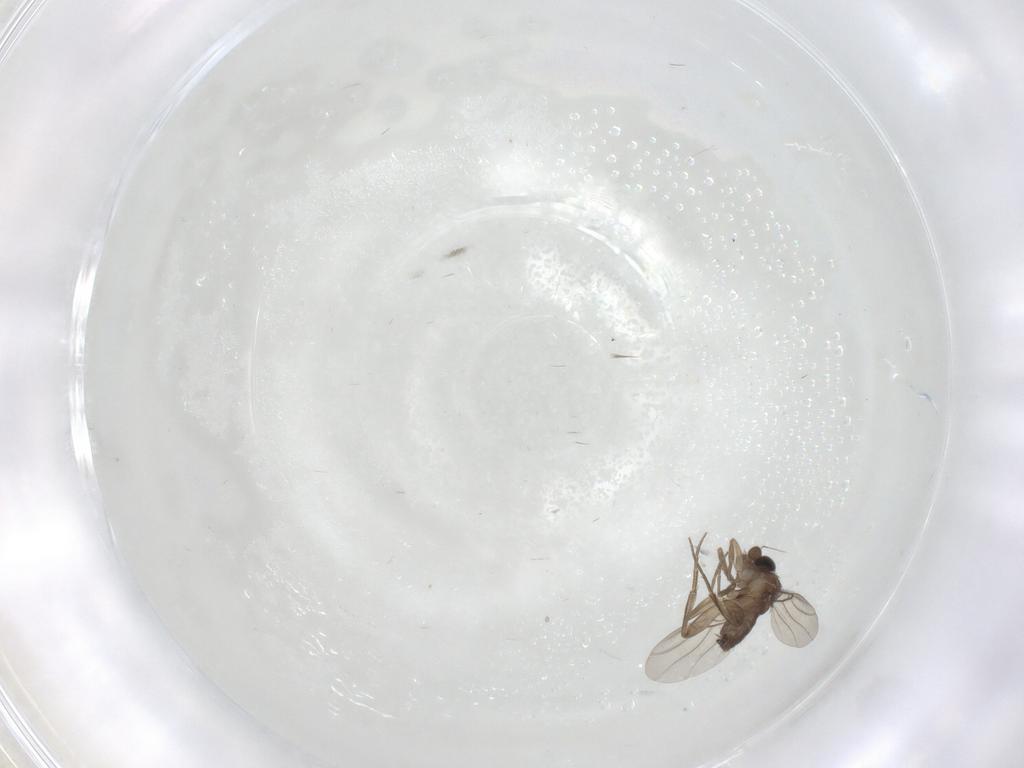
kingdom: Animalia
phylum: Arthropoda
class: Insecta
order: Diptera
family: Phoridae
